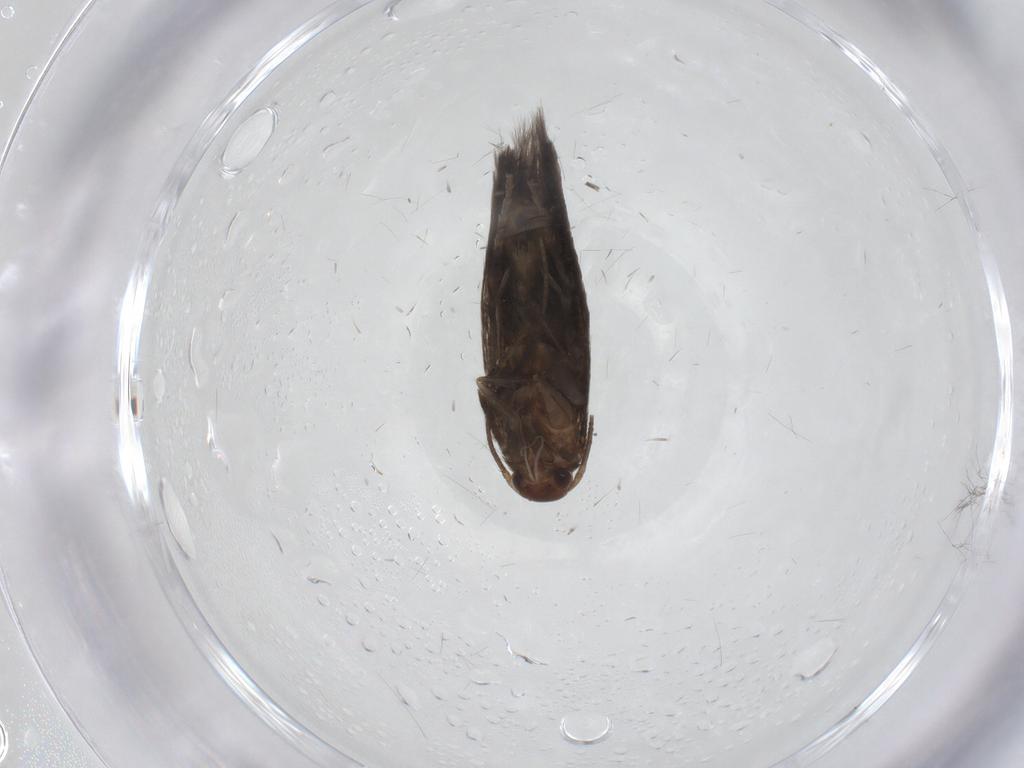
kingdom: Animalia
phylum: Arthropoda
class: Insecta
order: Lepidoptera
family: Elachistidae
